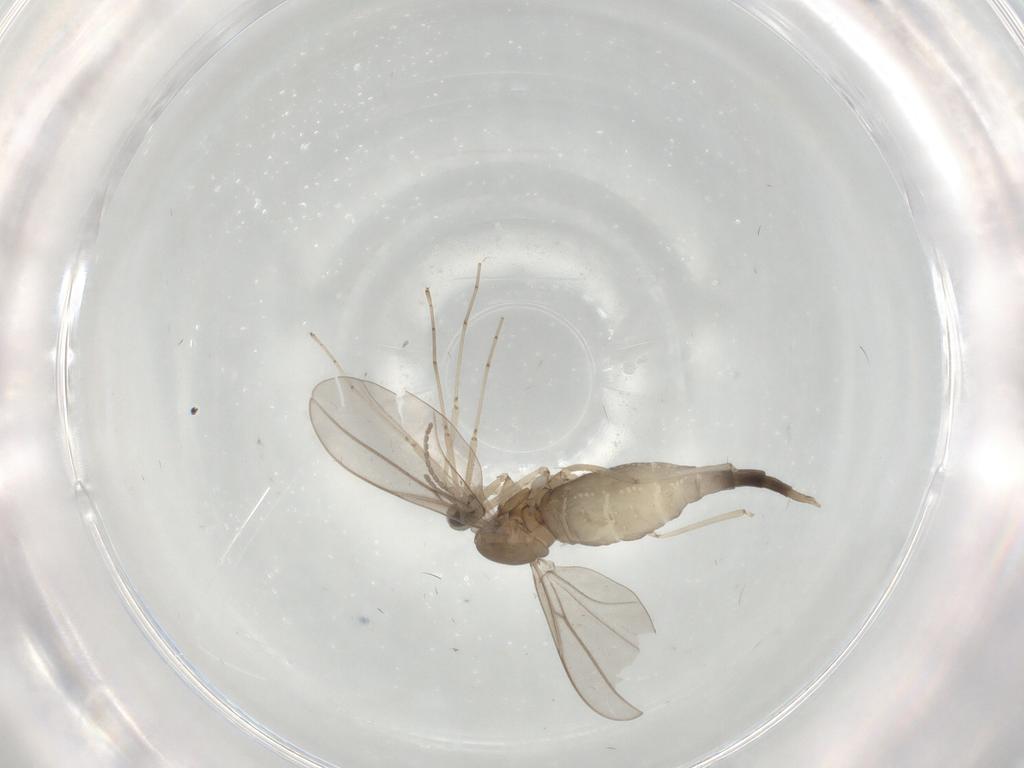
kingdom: Animalia
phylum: Arthropoda
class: Insecta
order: Diptera
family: Cecidomyiidae
